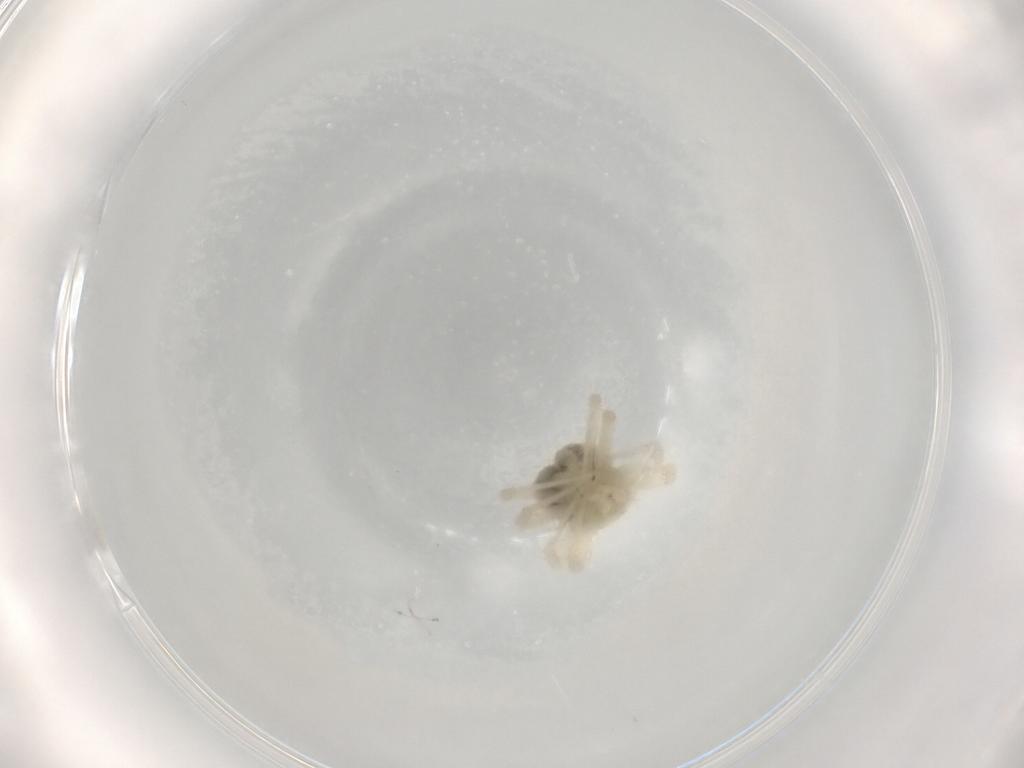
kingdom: Animalia
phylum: Arthropoda
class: Arachnida
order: Trombidiformes
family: Anystidae
